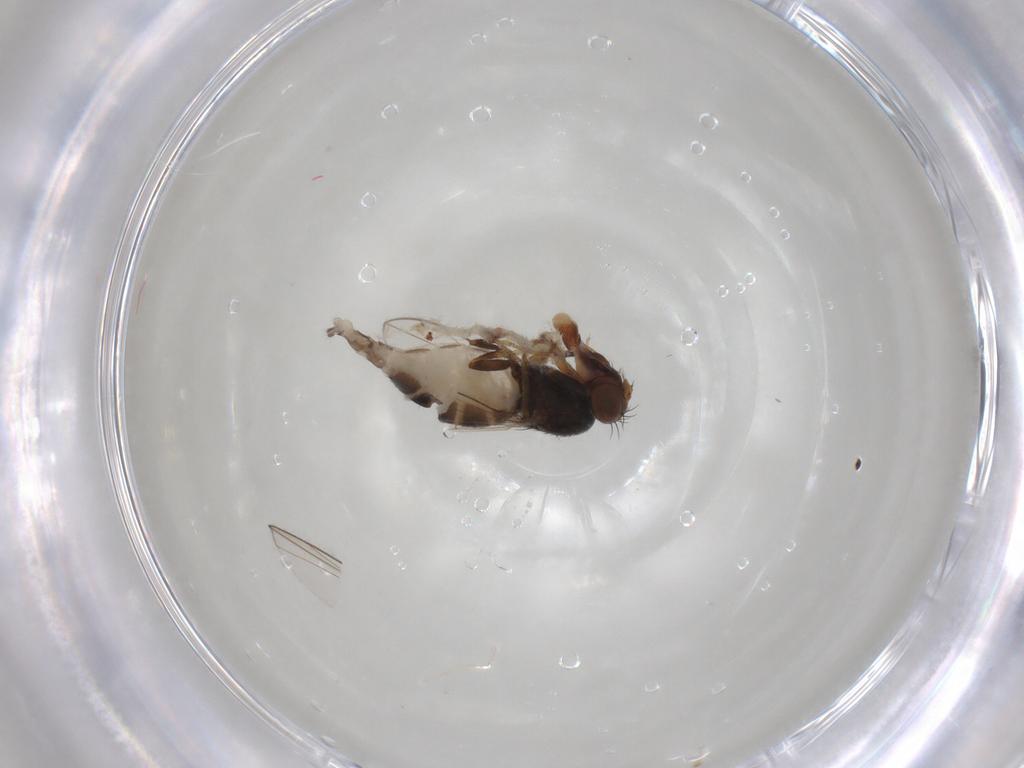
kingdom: Animalia
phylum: Arthropoda
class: Insecta
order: Diptera
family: Ephydridae
